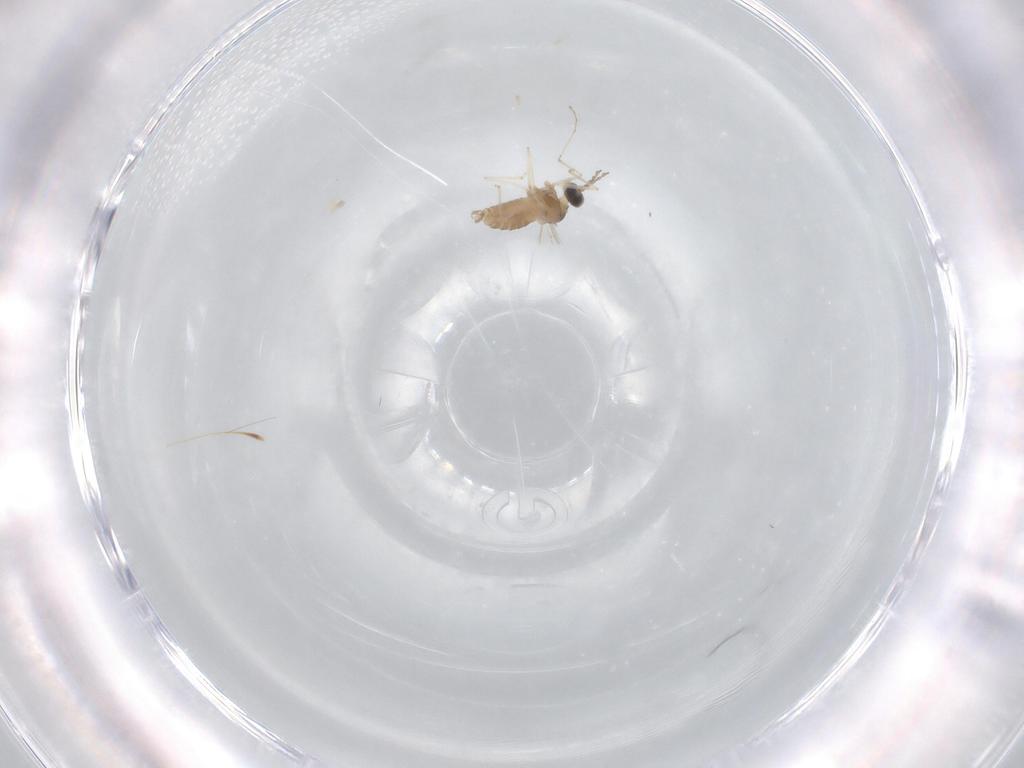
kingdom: Animalia
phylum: Arthropoda
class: Insecta
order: Diptera
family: Cecidomyiidae
